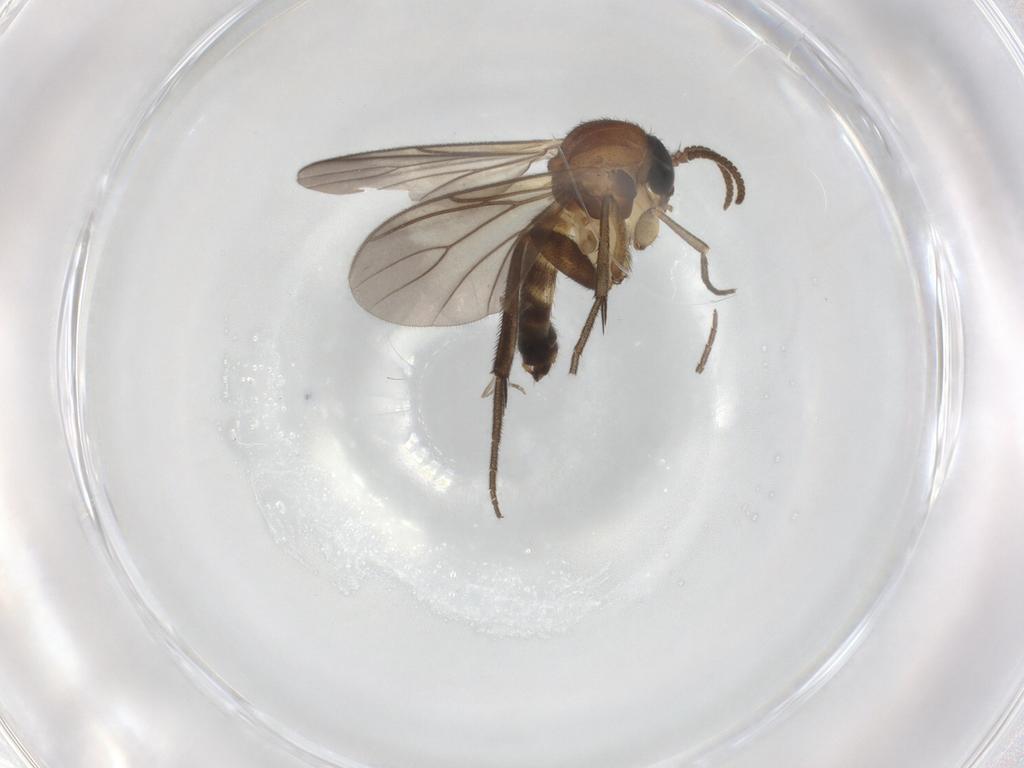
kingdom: Animalia
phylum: Arthropoda
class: Insecta
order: Diptera
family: Mycetophilidae
